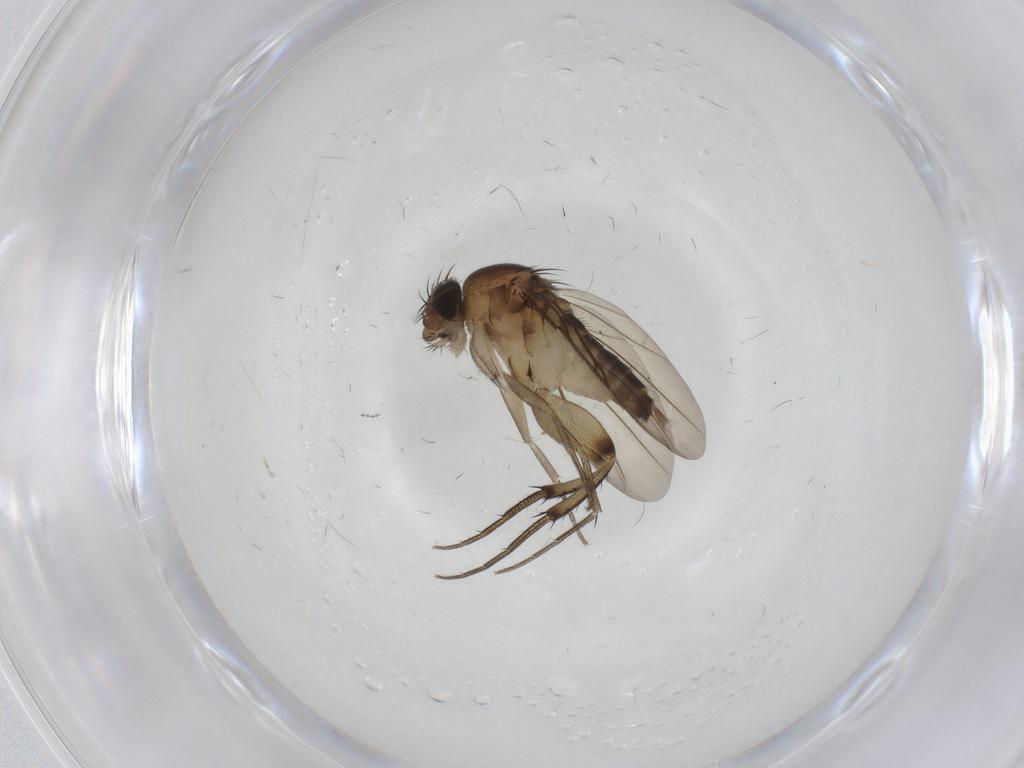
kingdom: Animalia
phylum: Arthropoda
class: Insecta
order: Diptera
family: Phoridae
